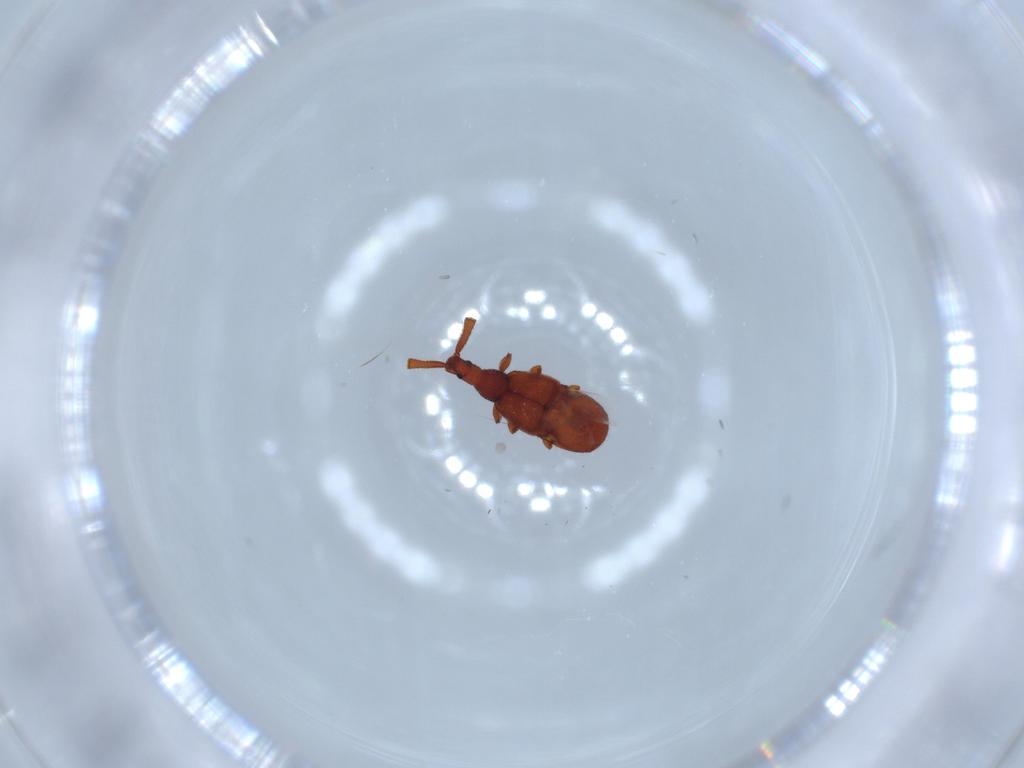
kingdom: Animalia
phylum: Arthropoda
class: Insecta
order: Coleoptera
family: Staphylinidae
